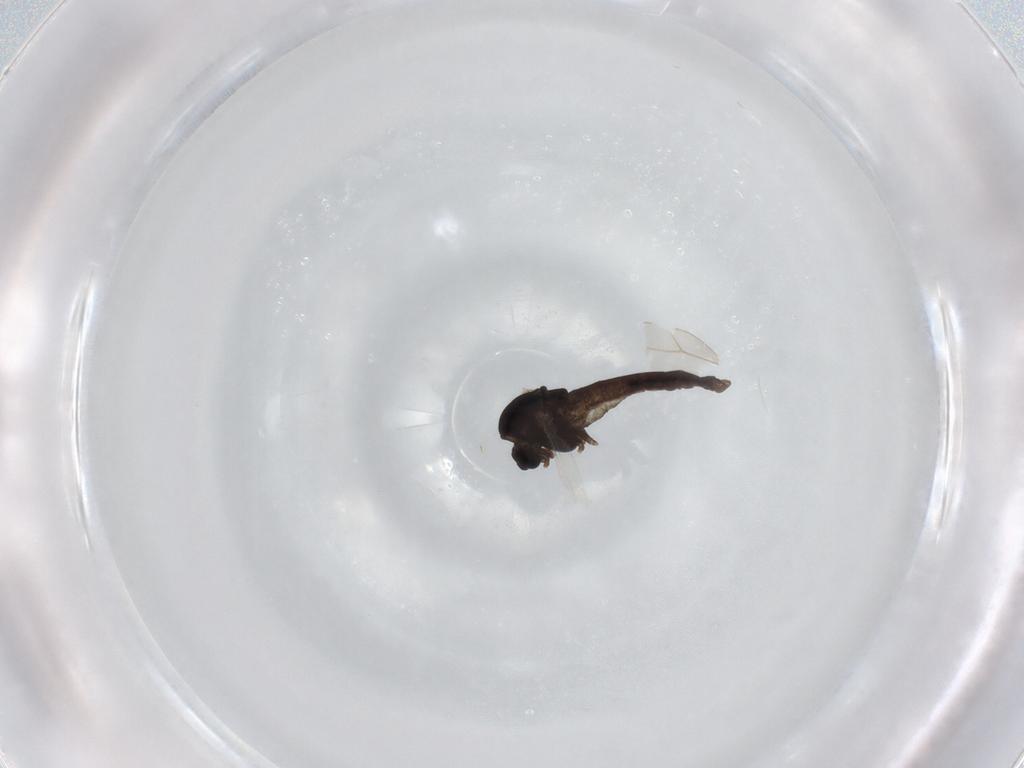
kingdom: Animalia
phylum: Arthropoda
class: Insecta
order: Diptera
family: Chironomidae
